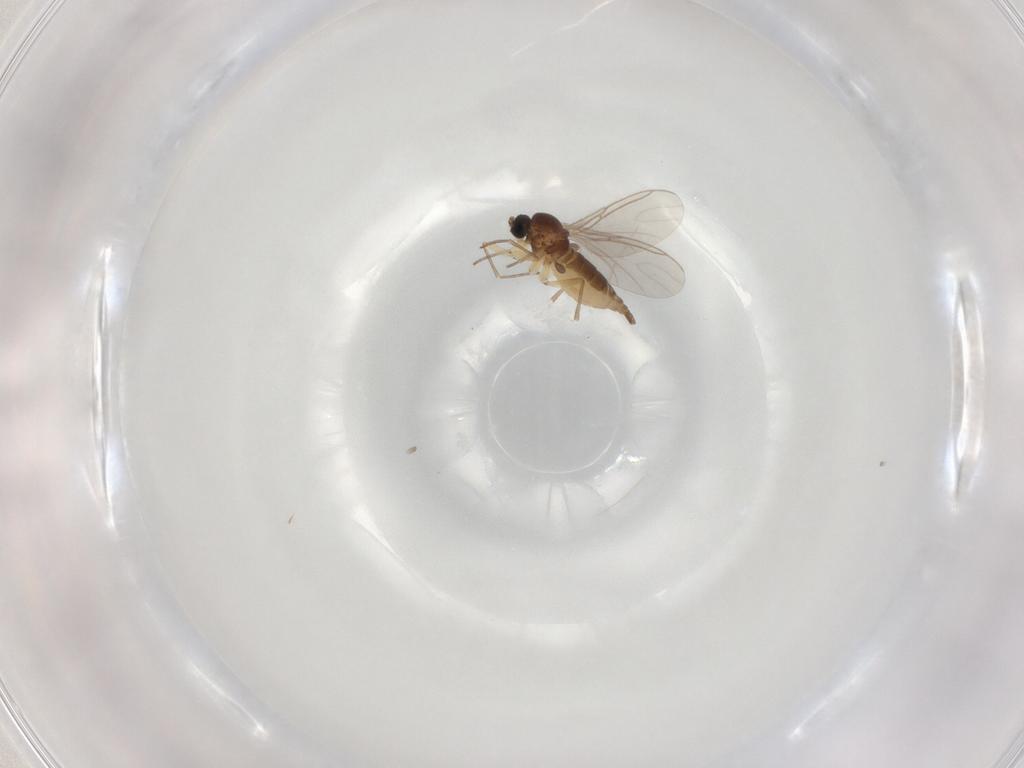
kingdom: Animalia
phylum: Arthropoda
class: Insecta
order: Diptera
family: Sciaridae
